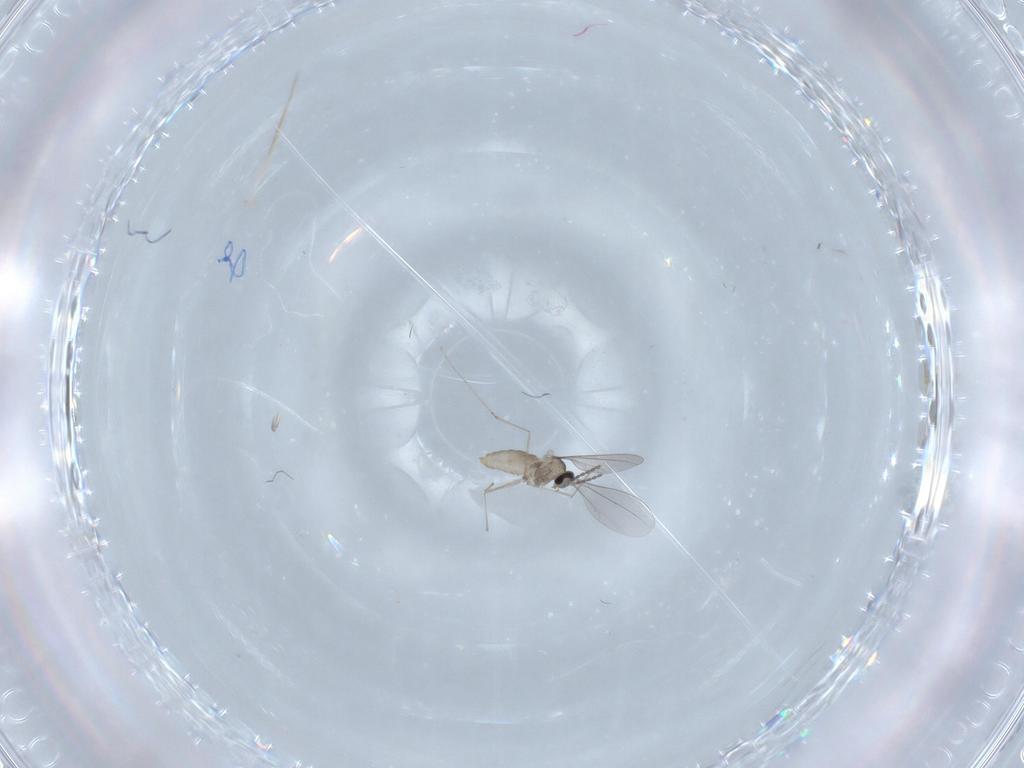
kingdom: Animalia
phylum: Arthropoda
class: Insecta
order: Diptera
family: Cecidomyiidae
